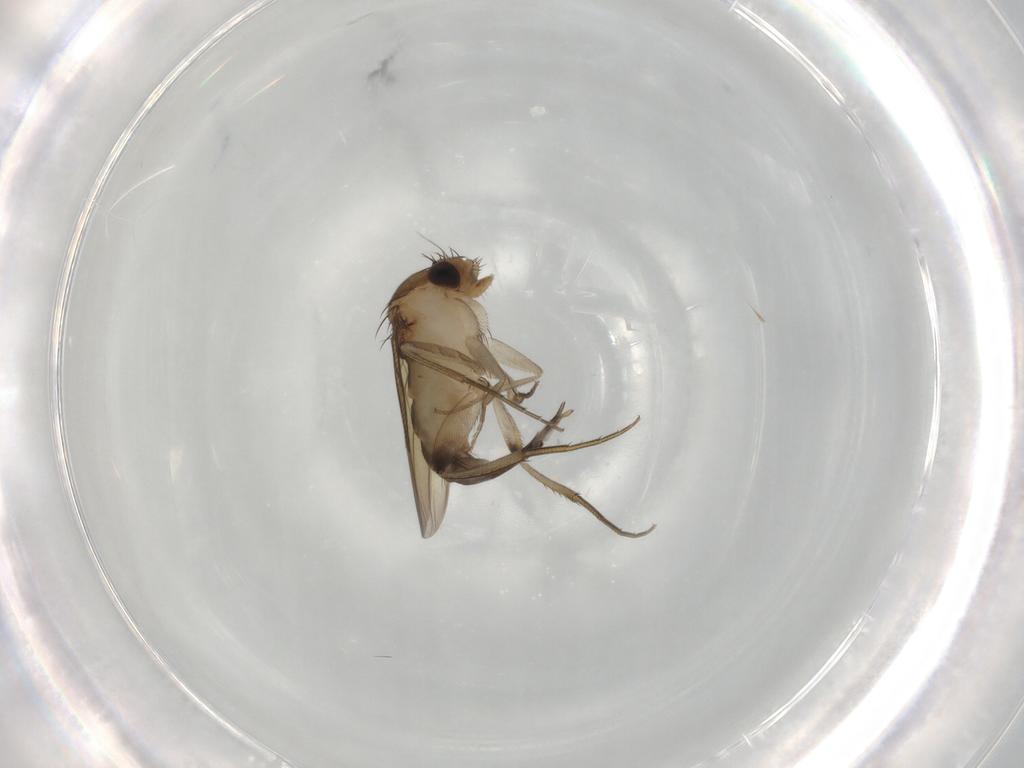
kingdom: Animalia
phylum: Arthropoda
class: Insecta
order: Diptera
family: Phoridae
